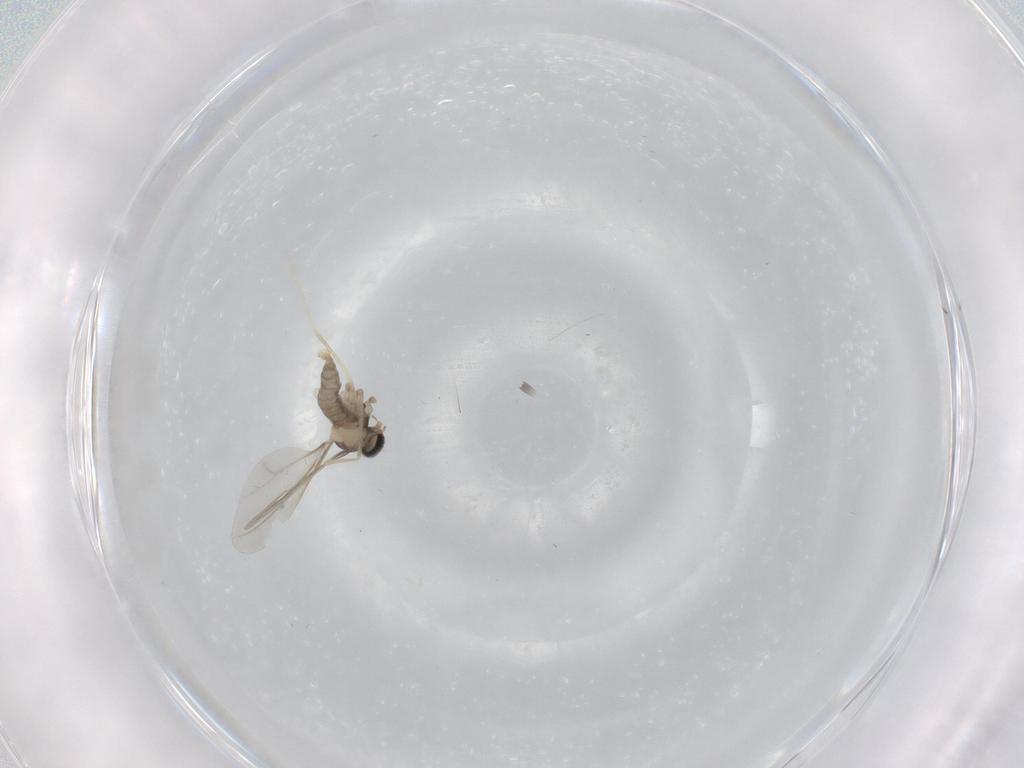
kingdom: Animalia
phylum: Arthropoda
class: Insecta
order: Diptera
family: Cecidomyiidae
